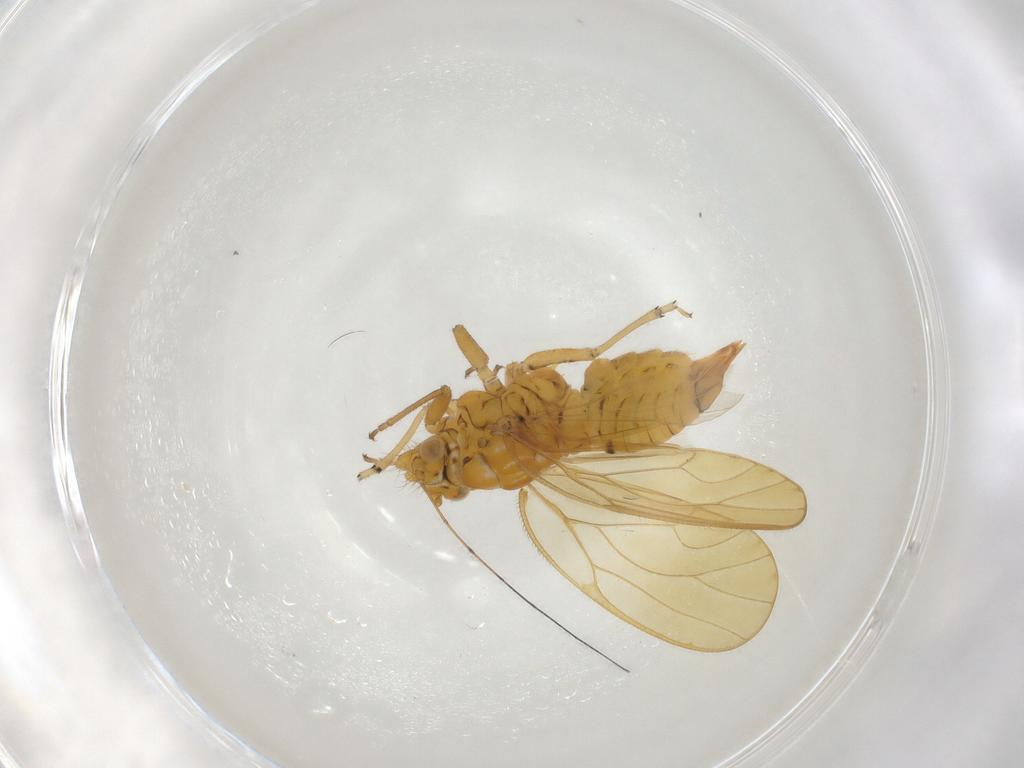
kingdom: Animalia
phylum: Arthropoda
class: Insecta
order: Hemiptera
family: Psyllidae
